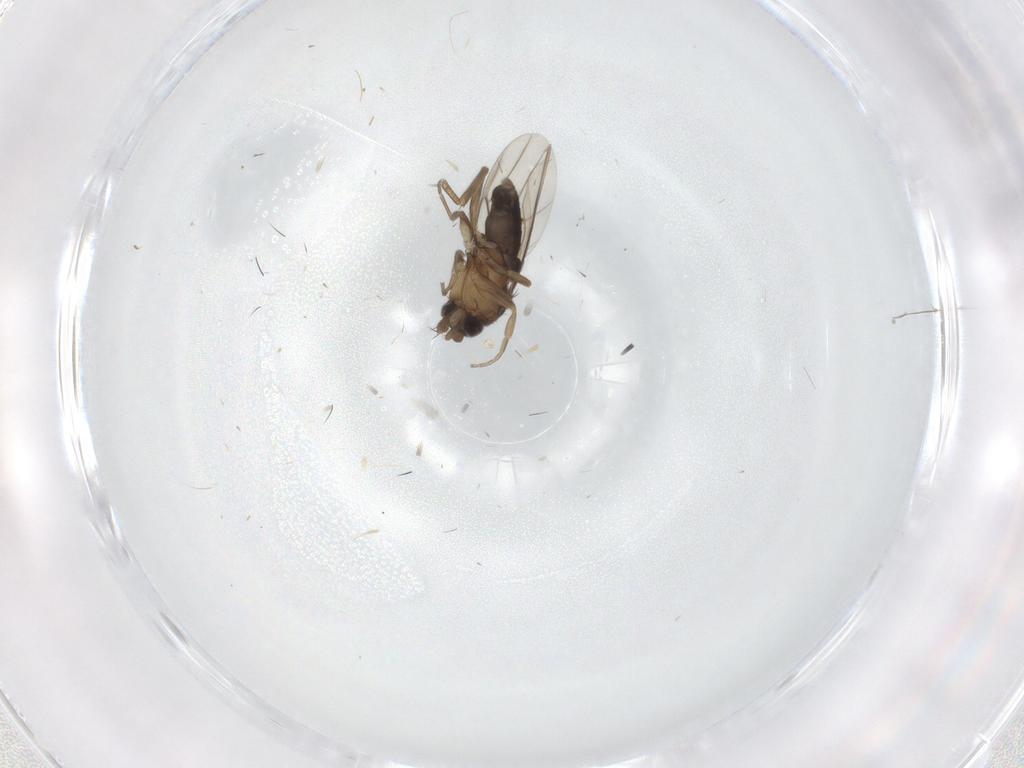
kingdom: Animalia
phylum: Arthropoda
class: Insecta
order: Diptera
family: Phoridae
